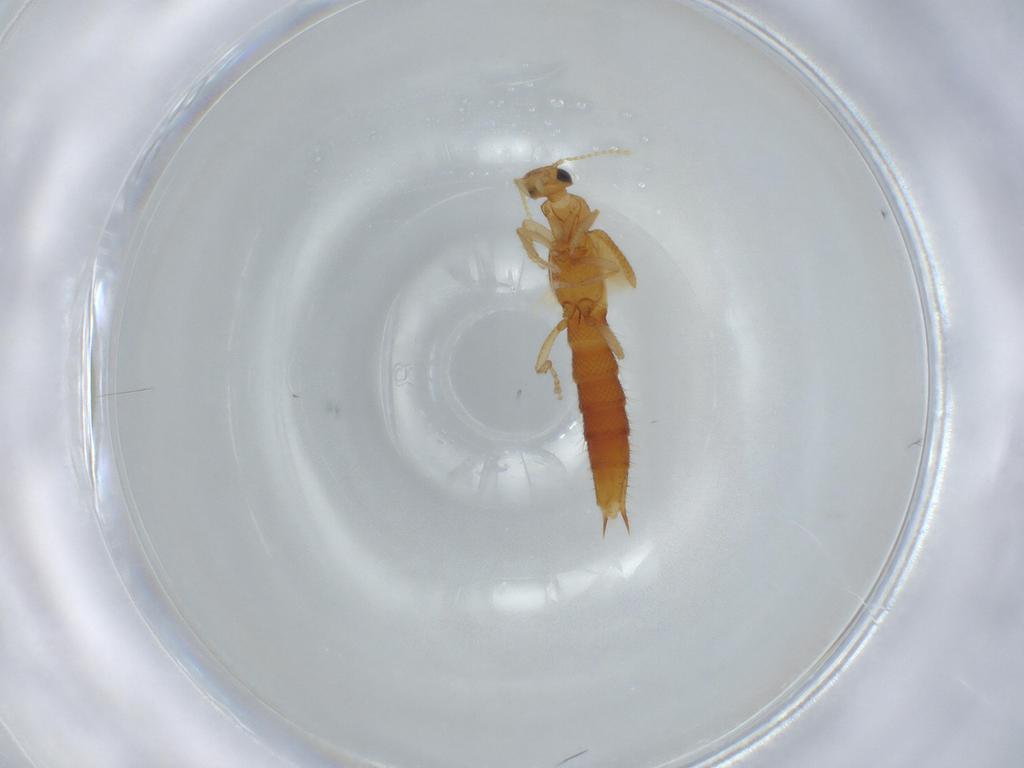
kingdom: Animalia
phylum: Arthropoda
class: Insecta
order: Coleoptera
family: Staphylinidae
